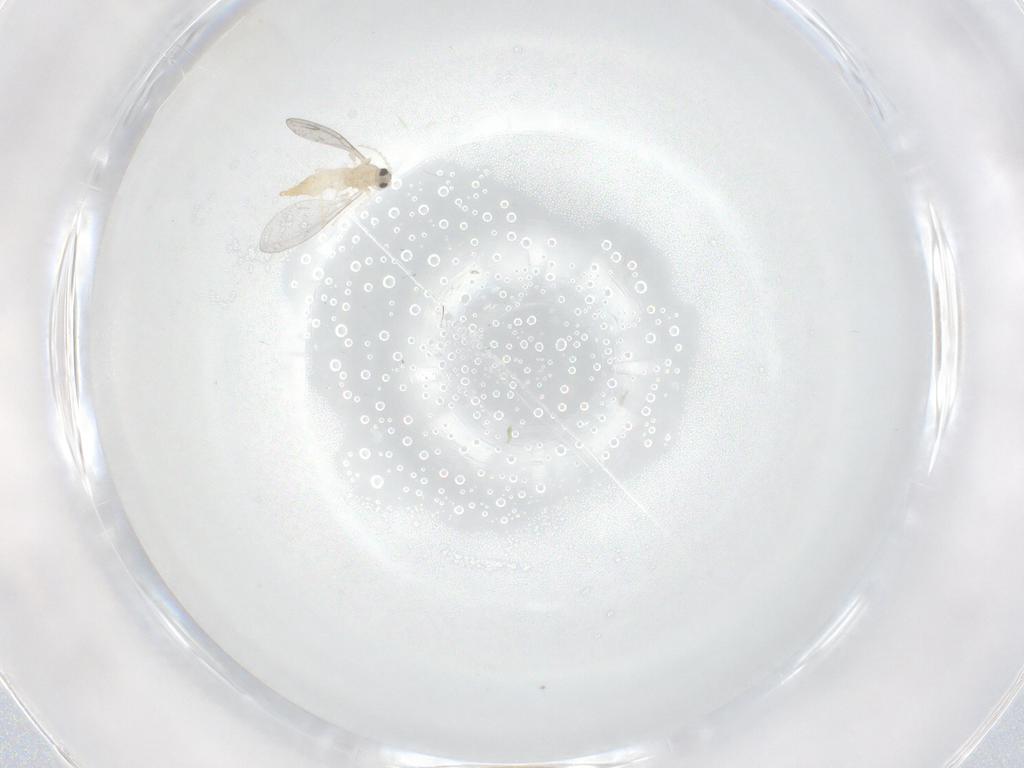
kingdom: Animalia
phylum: Arthropoda
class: Insecta
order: Diptera
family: Cecidomyiidae
